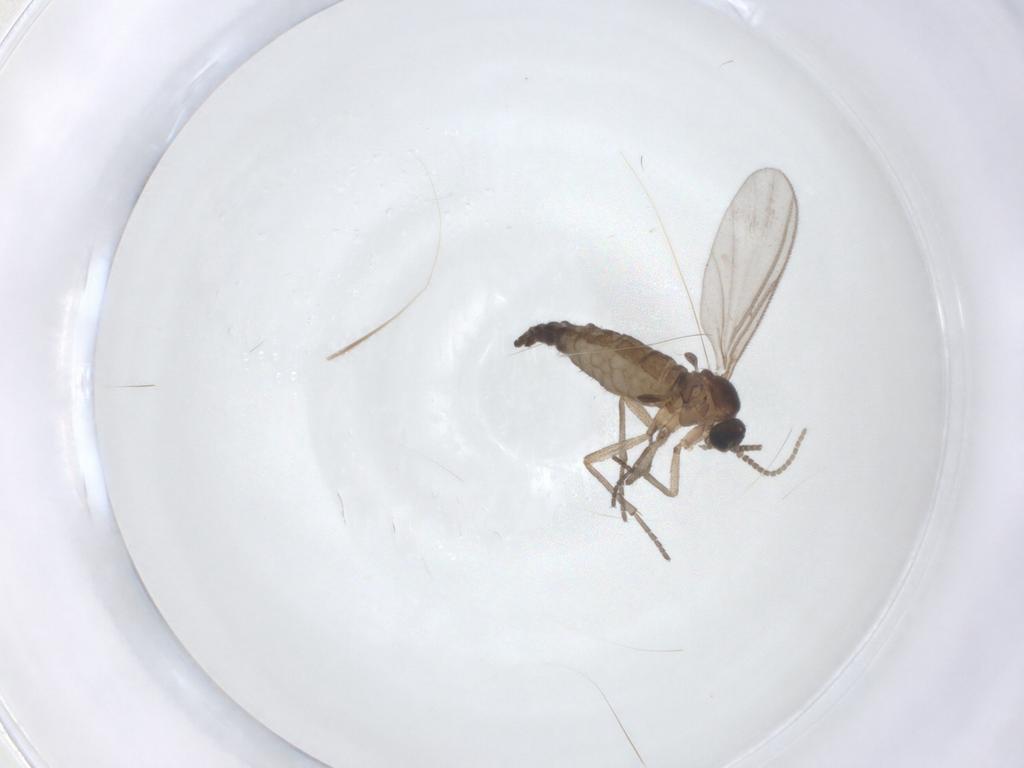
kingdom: Animalia
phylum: Arthropoda
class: Insecta
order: Diptera
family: Sciaridae
